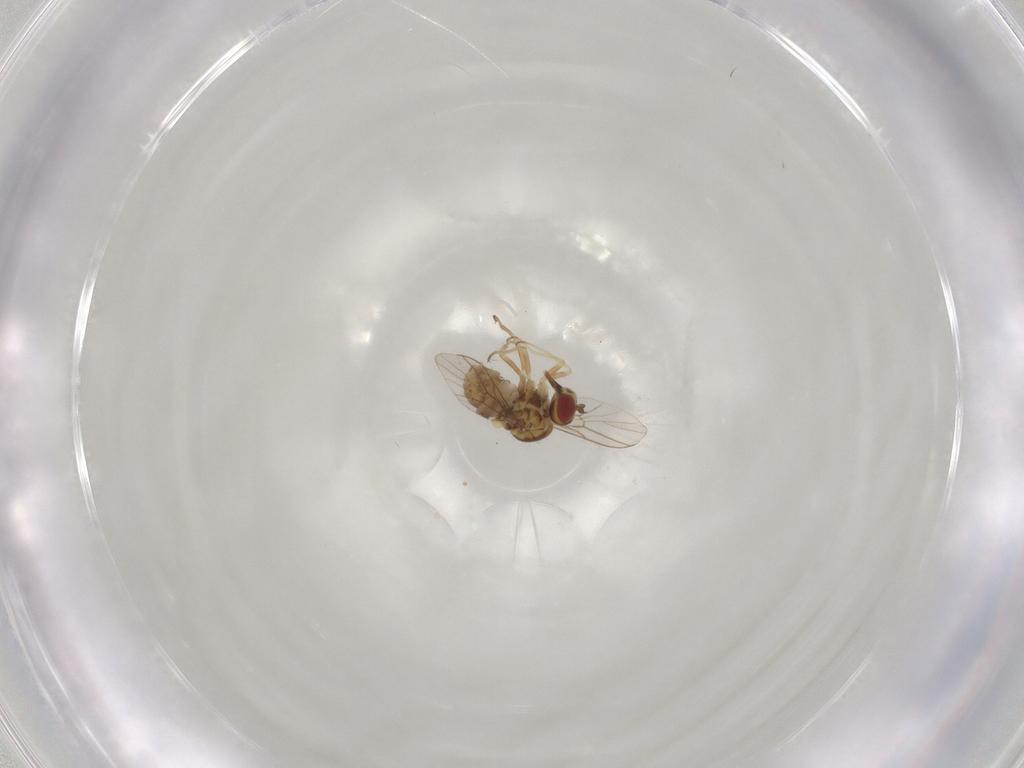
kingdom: Animalia
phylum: Arthropoda
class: Insecta
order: Diptera
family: Mythicomyiidae
